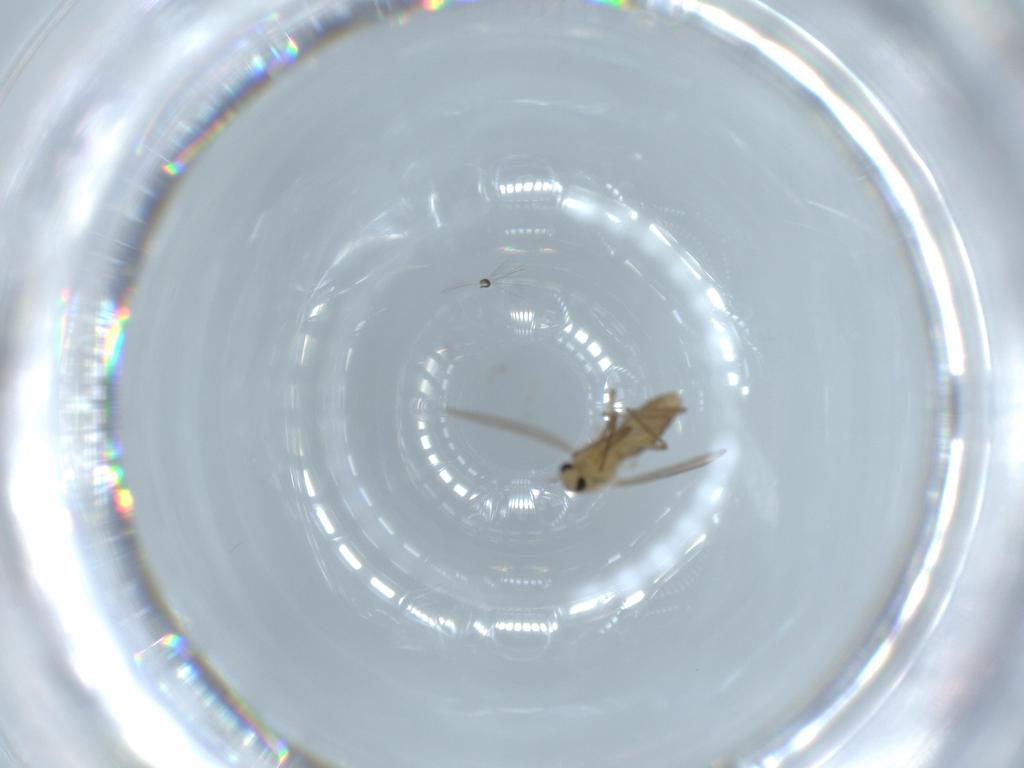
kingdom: Animalia
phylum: Arthropoda
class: Insecta
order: Diptera
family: Chironomidae
